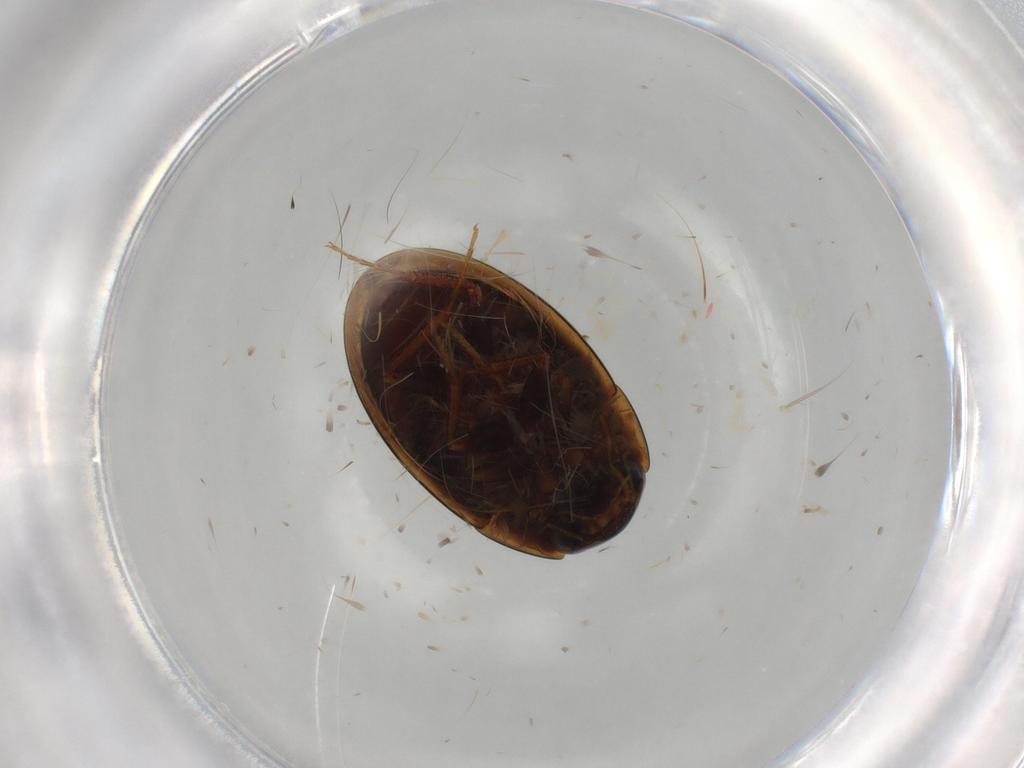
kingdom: Animalia
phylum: Arthropoda
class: Insecta
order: Coleoptera
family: Hydrophilidae
